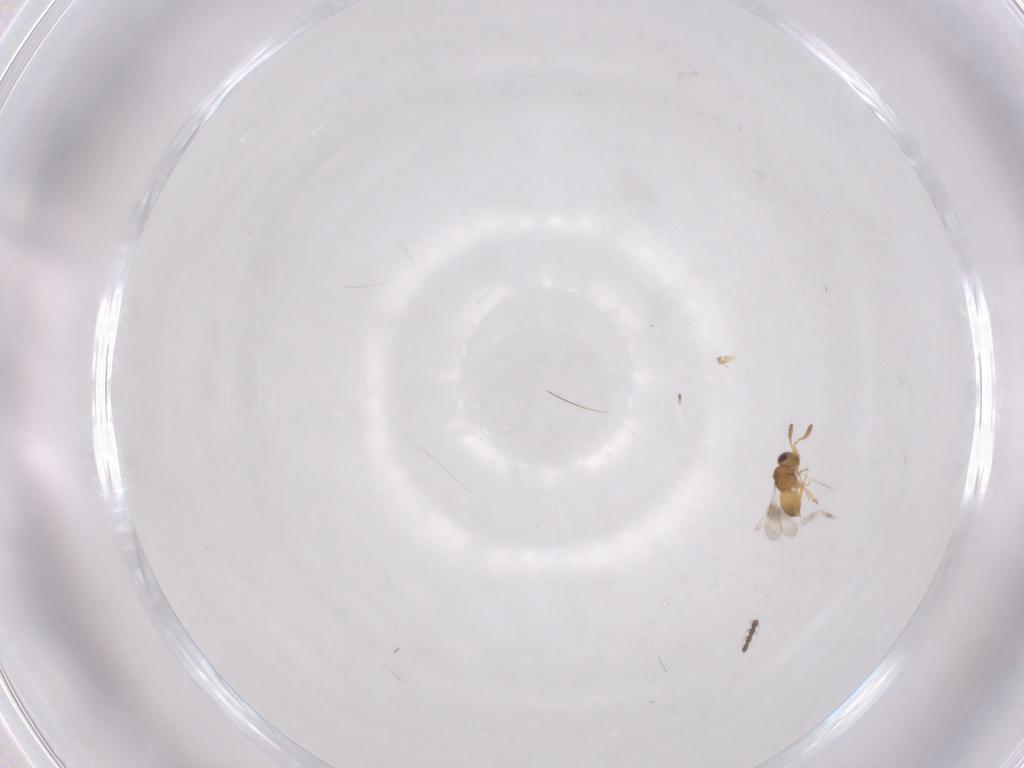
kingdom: Animalia
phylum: Arthropoda
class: Insecta
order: Diptera
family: Cecidomyiidae
